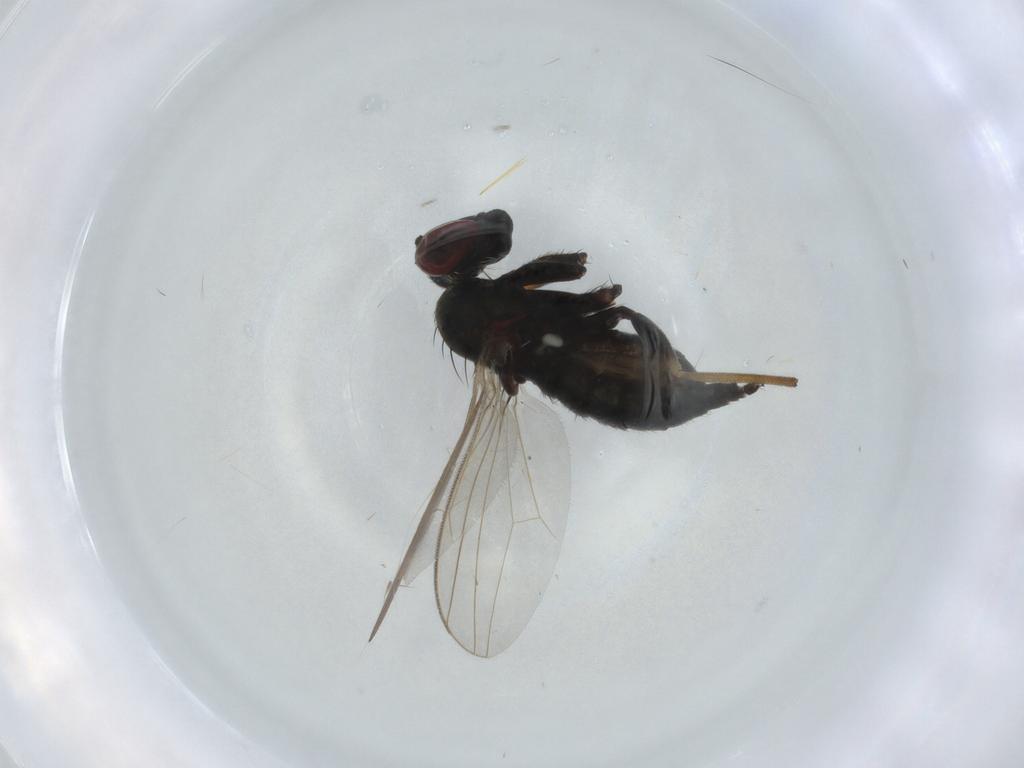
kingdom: Animalia
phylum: Arthropoda
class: Insecta
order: Diptera
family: Dolichopodidae
